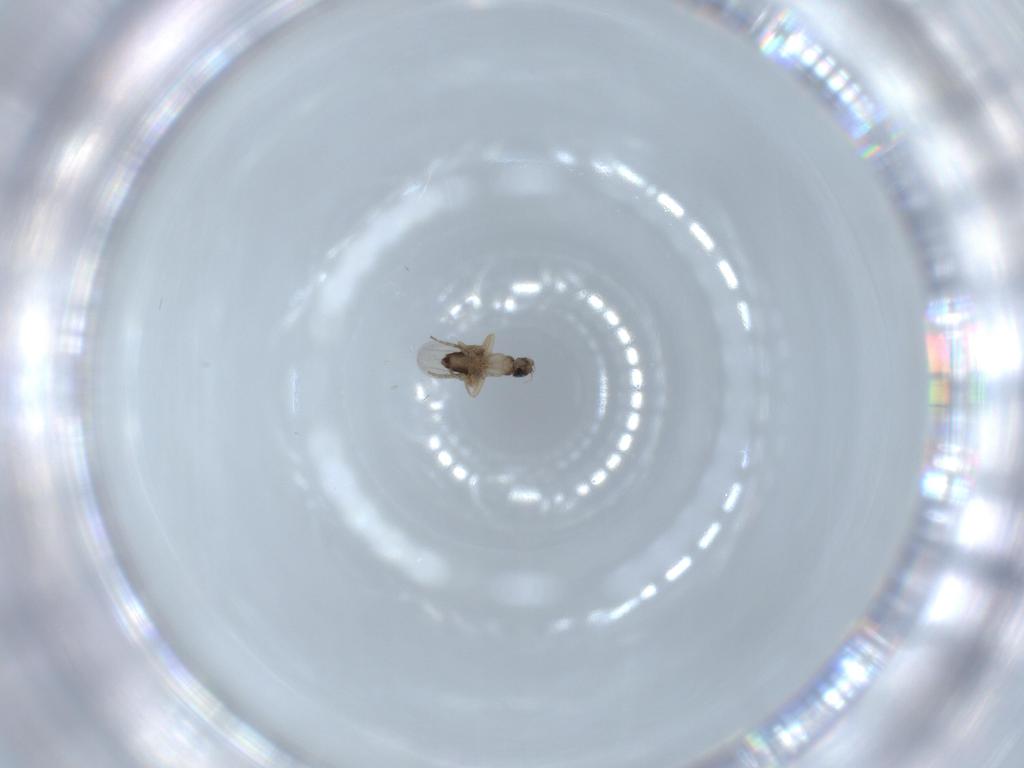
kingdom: Animalia
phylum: Arthropoda
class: Insecta
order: Diptera
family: Phoridae
